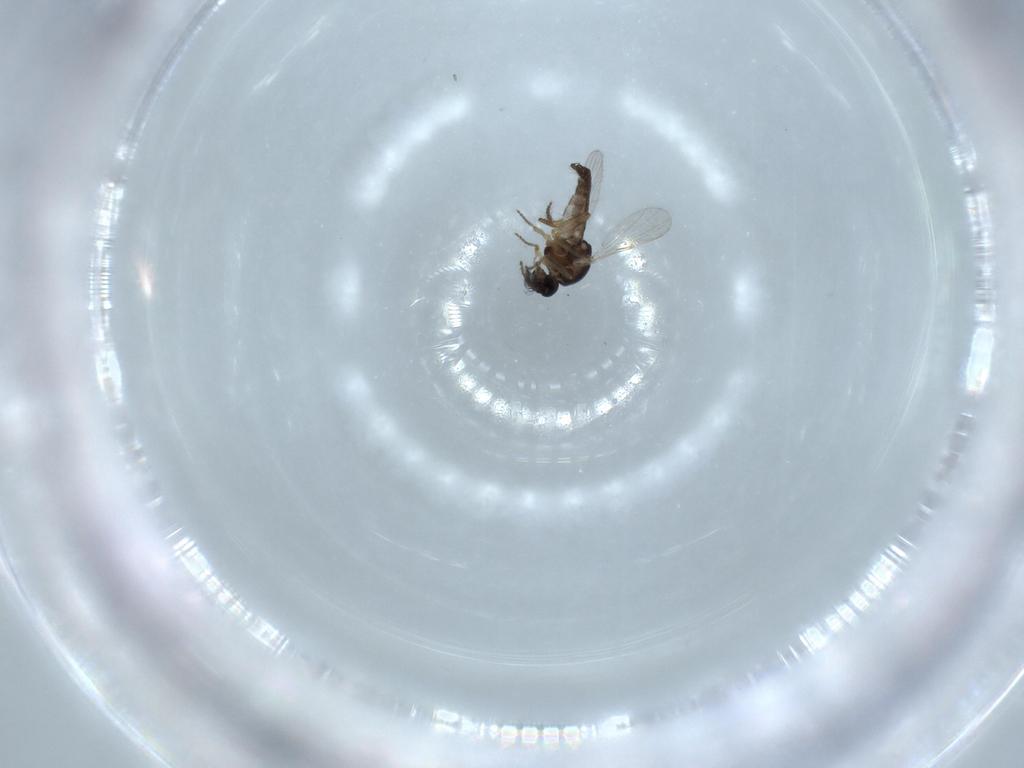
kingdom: Animalia
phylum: Arthropoda
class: Insecta
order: Diptera
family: Ceratopogonidae
